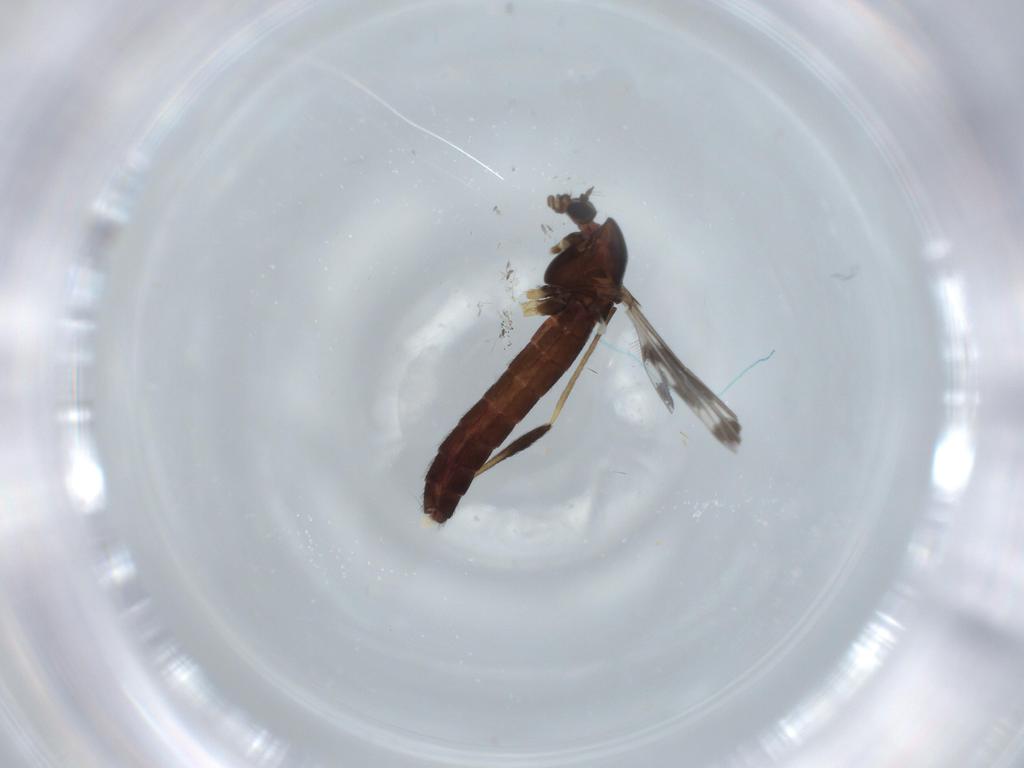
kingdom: Animalia
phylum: Arthropoda
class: Insecta
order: Diptera
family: Chironomidae
